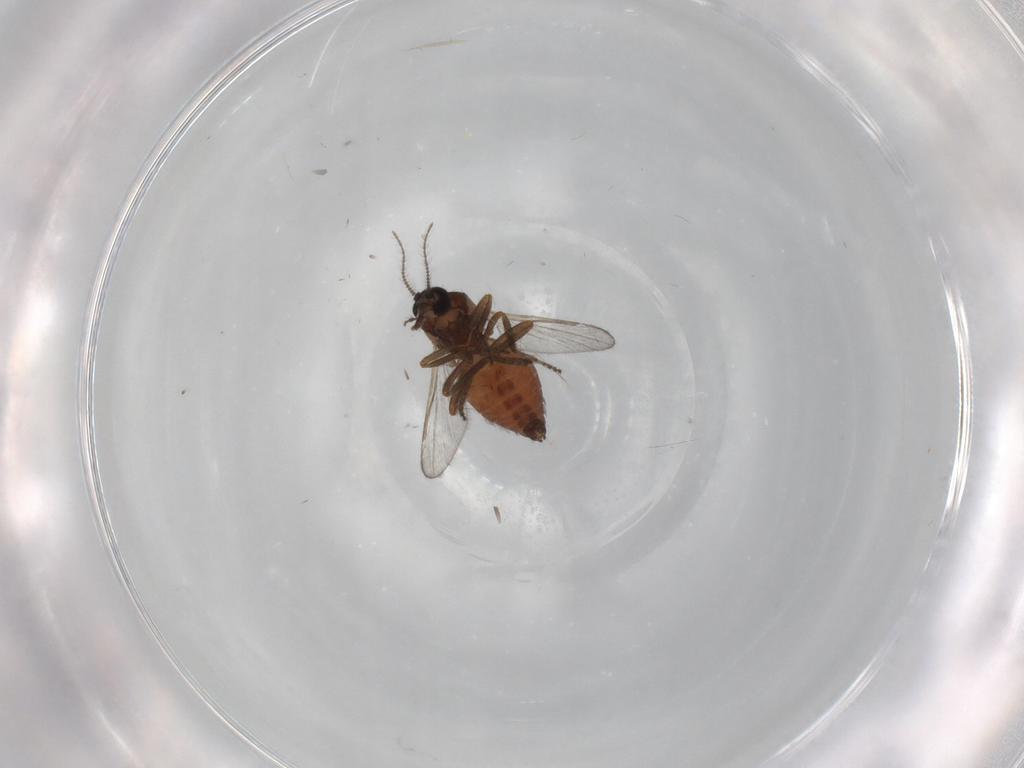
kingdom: Animalia
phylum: Arthropoda
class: Insecta
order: Diptera
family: Ceratopogonidae
